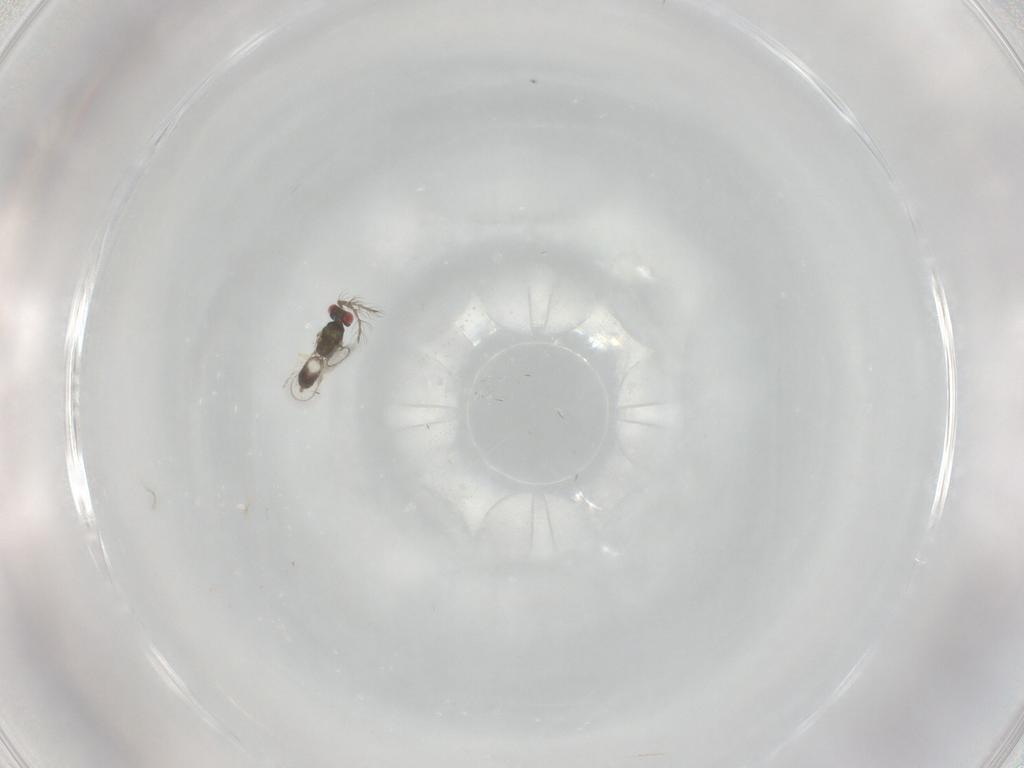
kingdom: Animalia
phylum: Arthropoda
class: Insecta
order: Hymenoptera
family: Eulophidae
